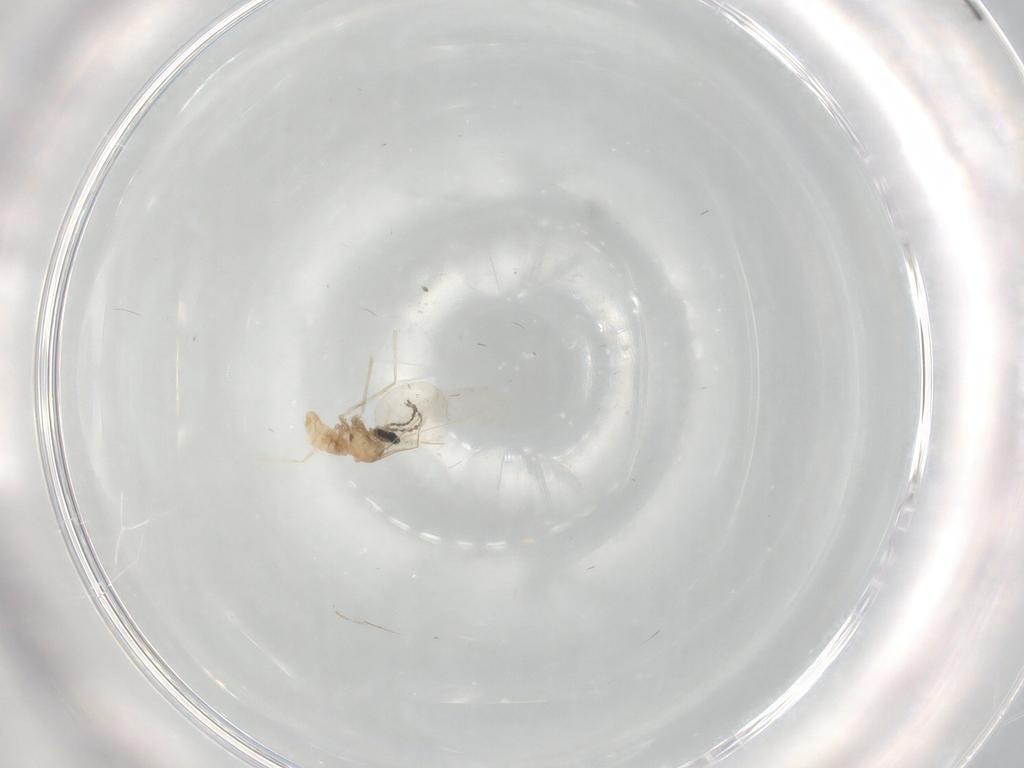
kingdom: Animalia
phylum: Arthropoda
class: Insecta
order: Diptera
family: Cecidomyiidae
